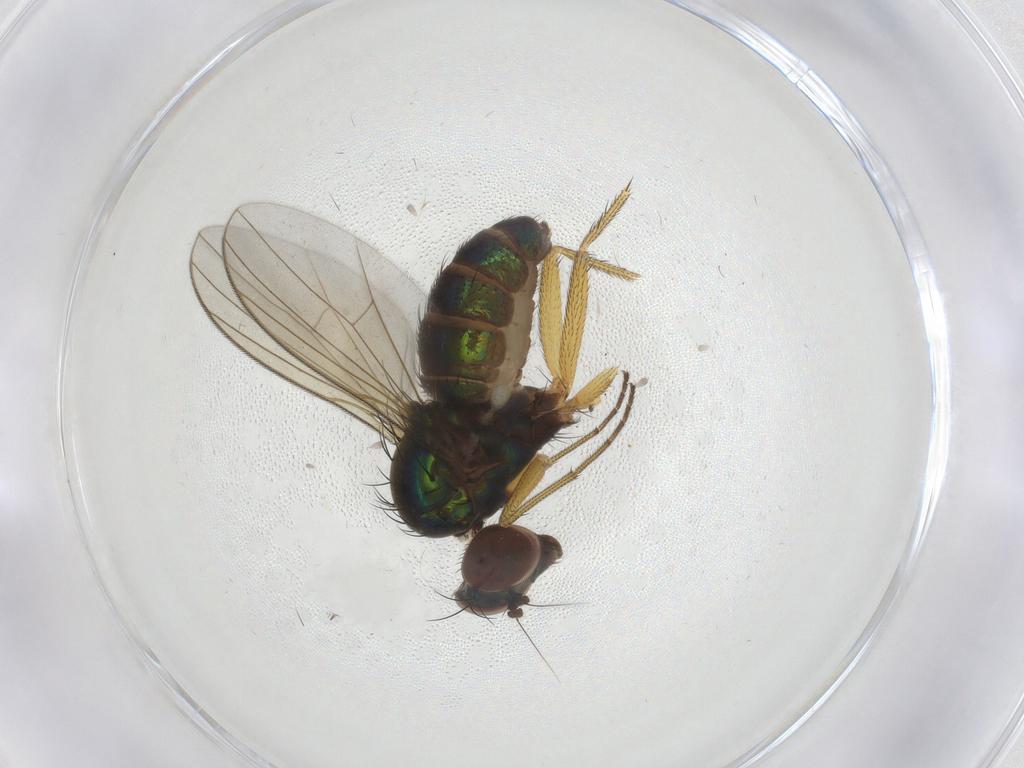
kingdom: Animalia
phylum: Arthropoda
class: Insecta
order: Diptera
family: Dolichopodidae
